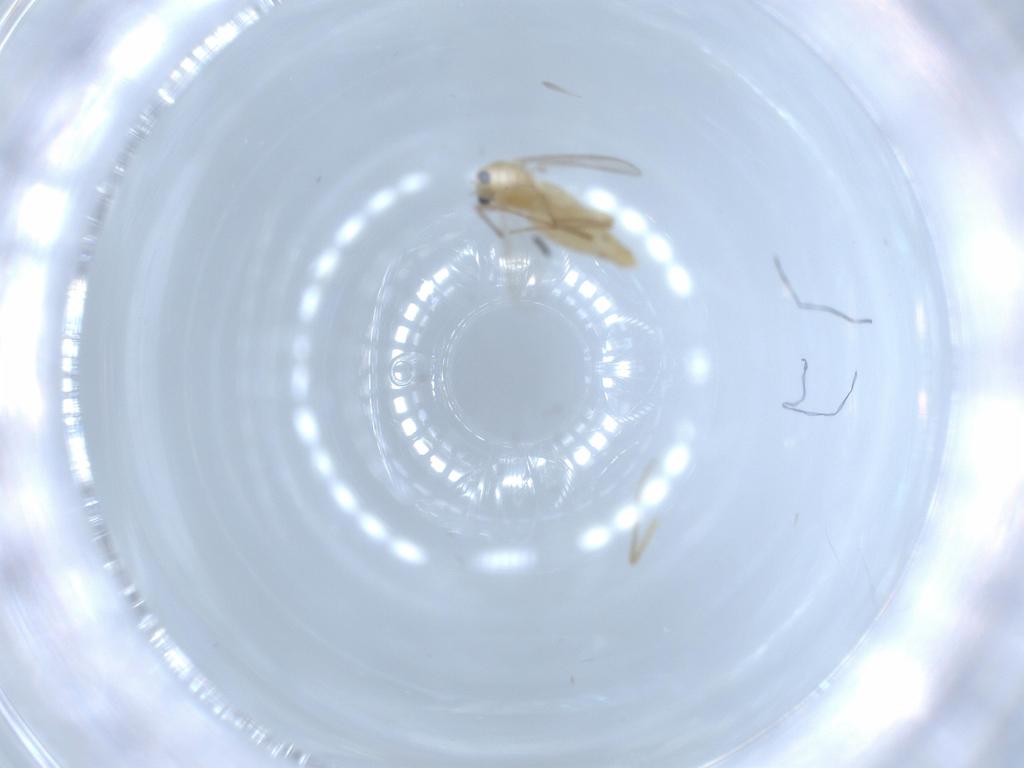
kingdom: Animalia
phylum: Arthropoda
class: Insecta
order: Diptera
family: Chironomidae
